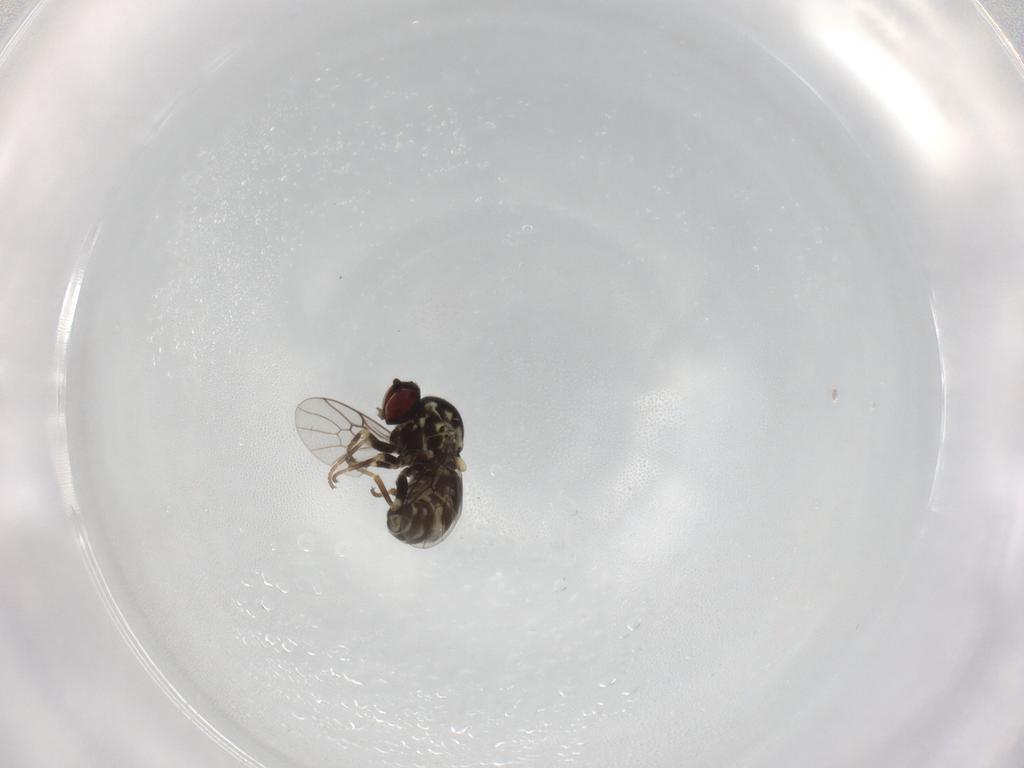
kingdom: Animalia
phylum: Arthropoda
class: Insecta
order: Diptera
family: Bombyliidae
